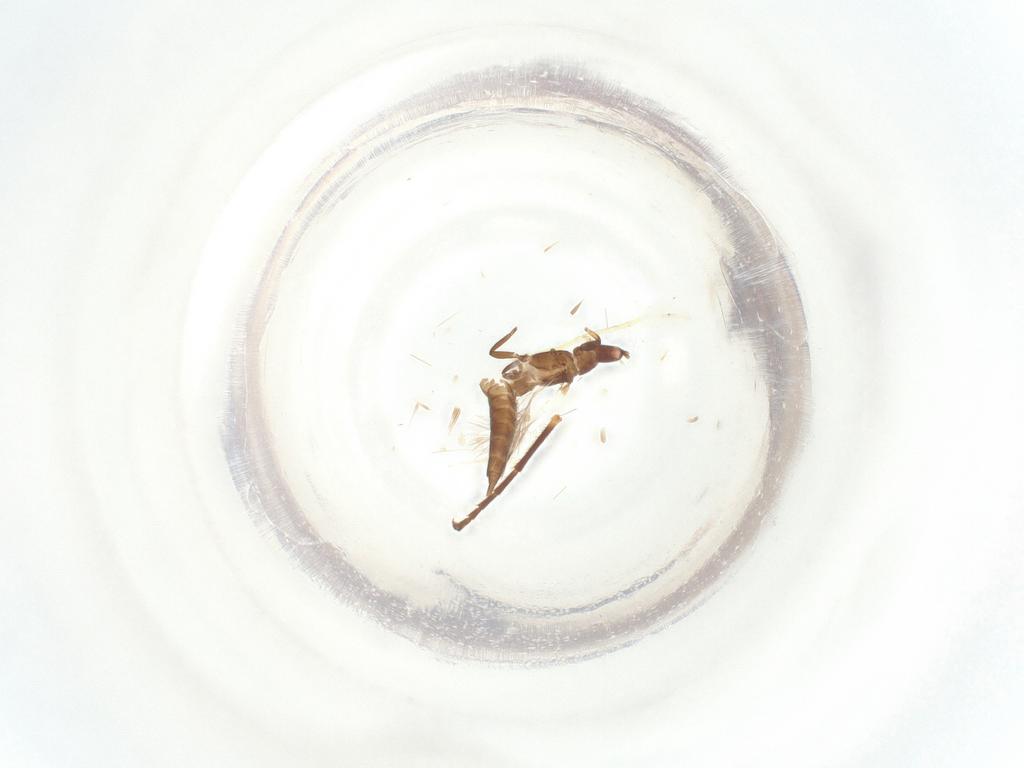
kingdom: Animalia
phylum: Arthropoda
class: Insecta
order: Thysanoptera
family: Phlaeothripidae
